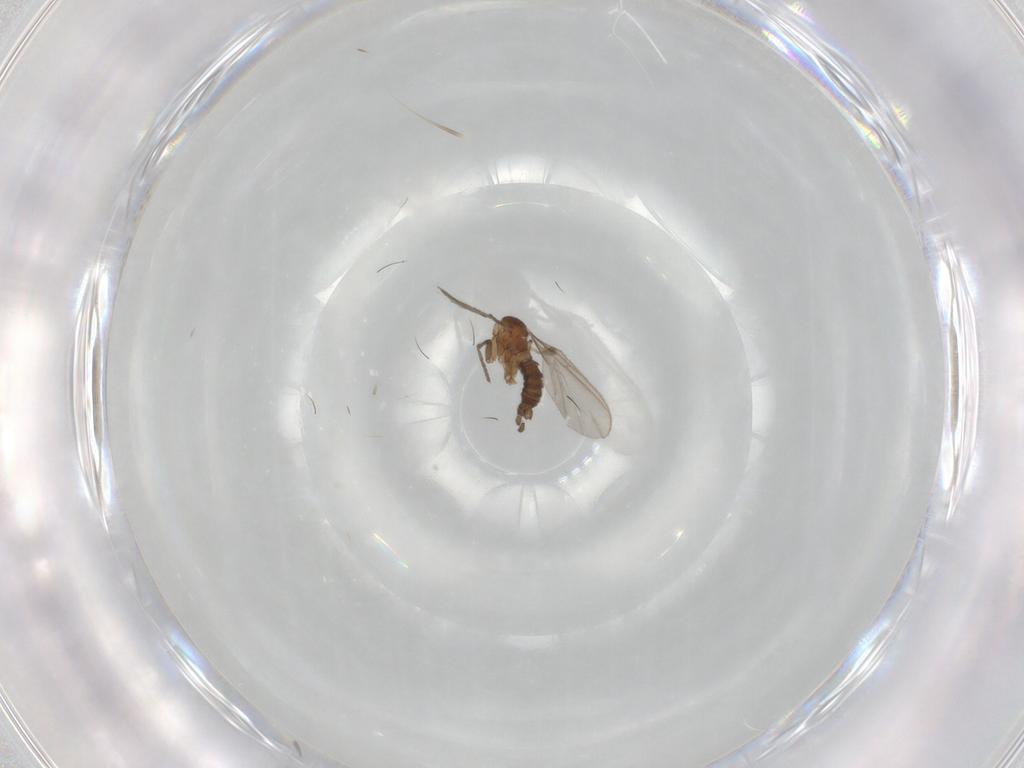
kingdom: Animalia
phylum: Arthropoda
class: Insecta
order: Diptera
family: Sciaridae
